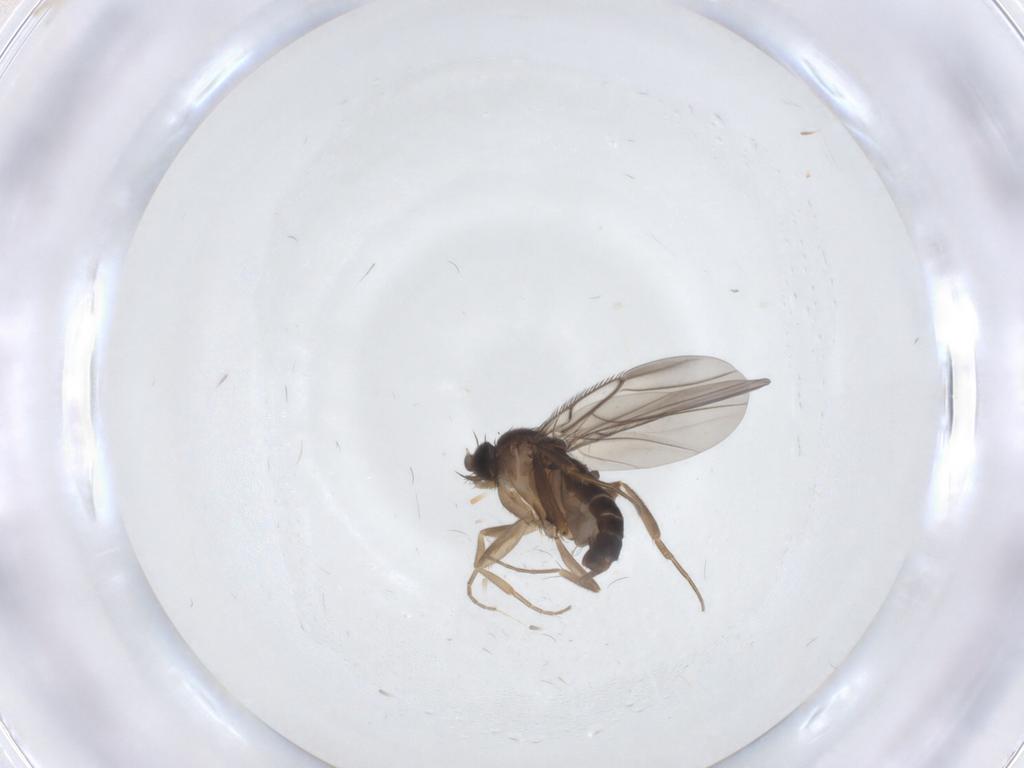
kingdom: Animalia
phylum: Arthropoda
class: Insecta
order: Diptera
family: Phoridae
